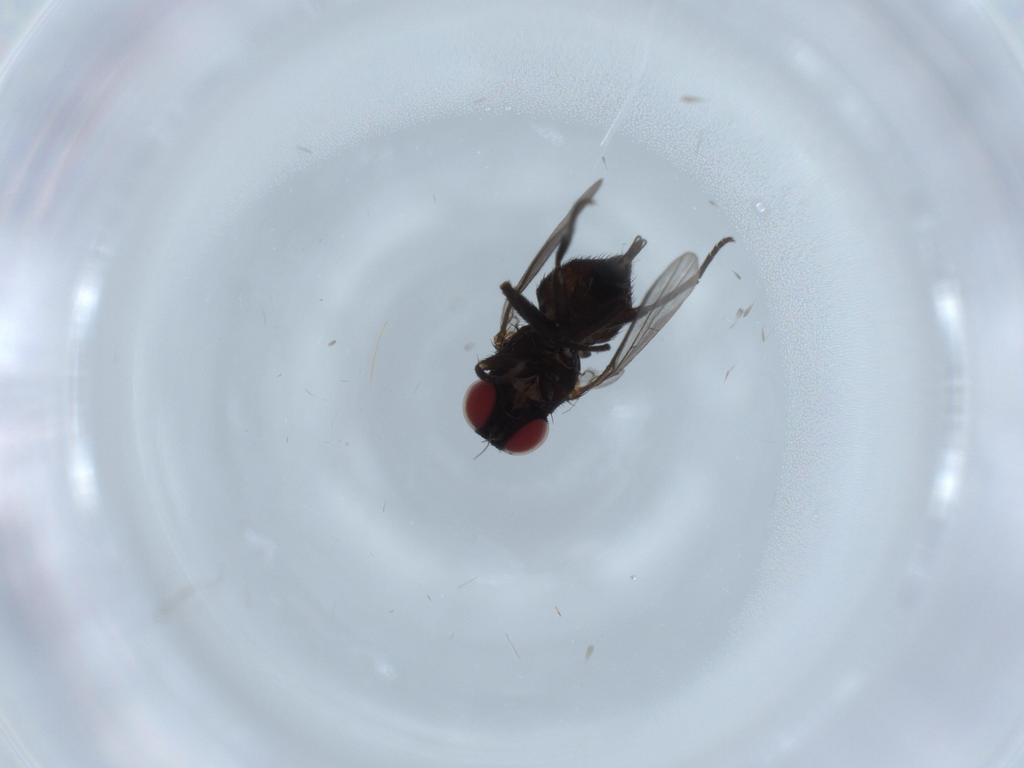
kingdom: Animalia
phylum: Arthropoda
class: Insecta
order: Diptera
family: Agromyzidae
